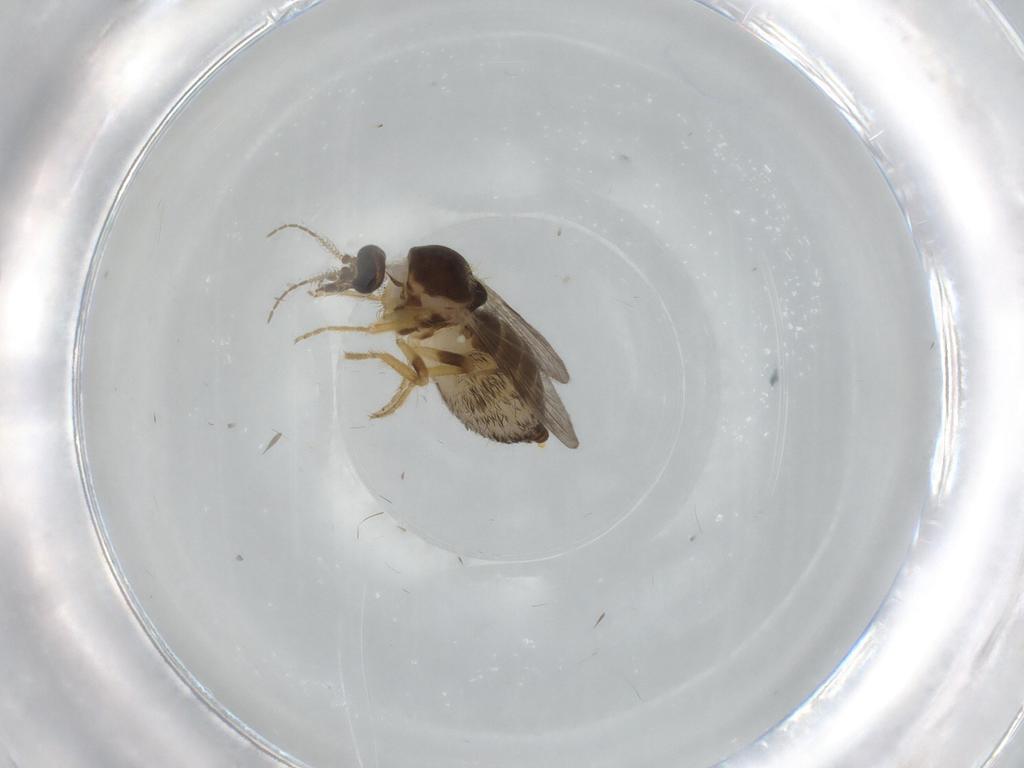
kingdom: Animalia
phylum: Arthropoda
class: Insecta
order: Diptera
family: Ceratopogonidae
